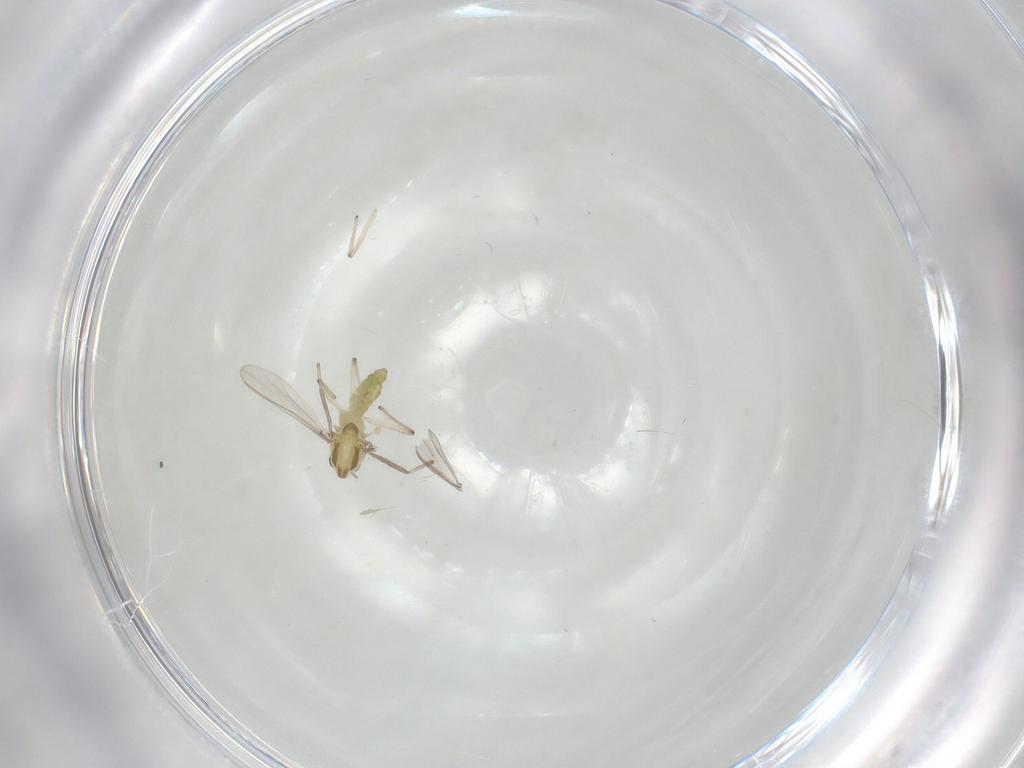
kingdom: Animalia
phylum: Arthropoda
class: Insecta
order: Diptera
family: Chironomidae
